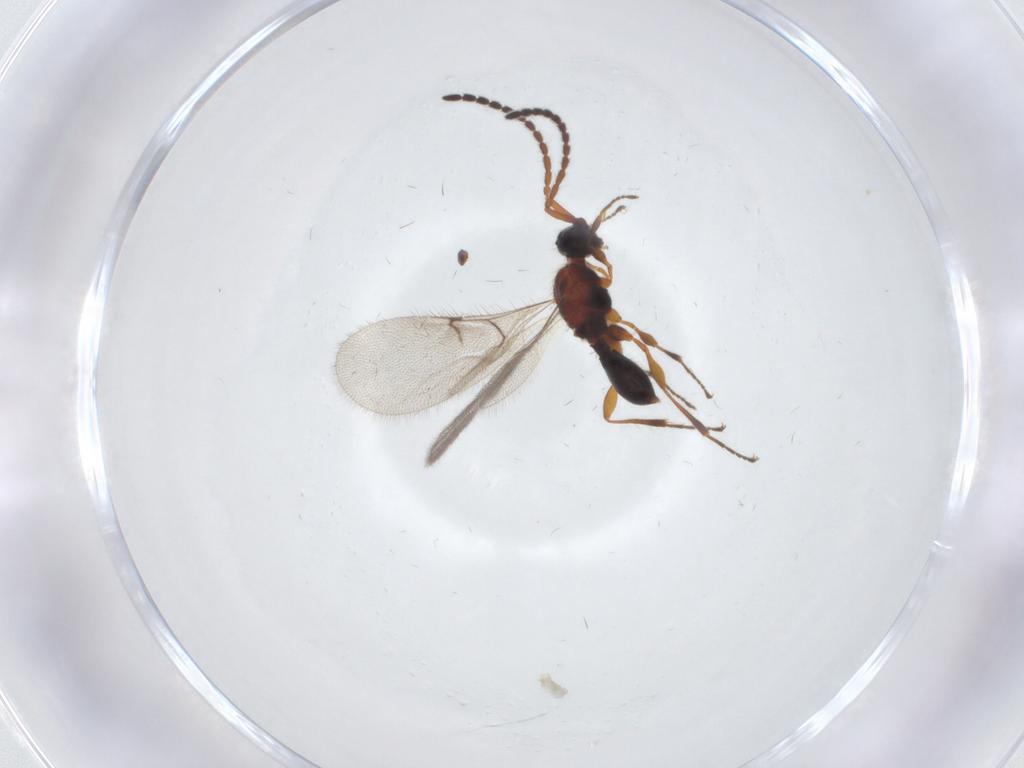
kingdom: Animalia
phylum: Arthropoda
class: Insecta
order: Hymenoptera
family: Diapriidae
